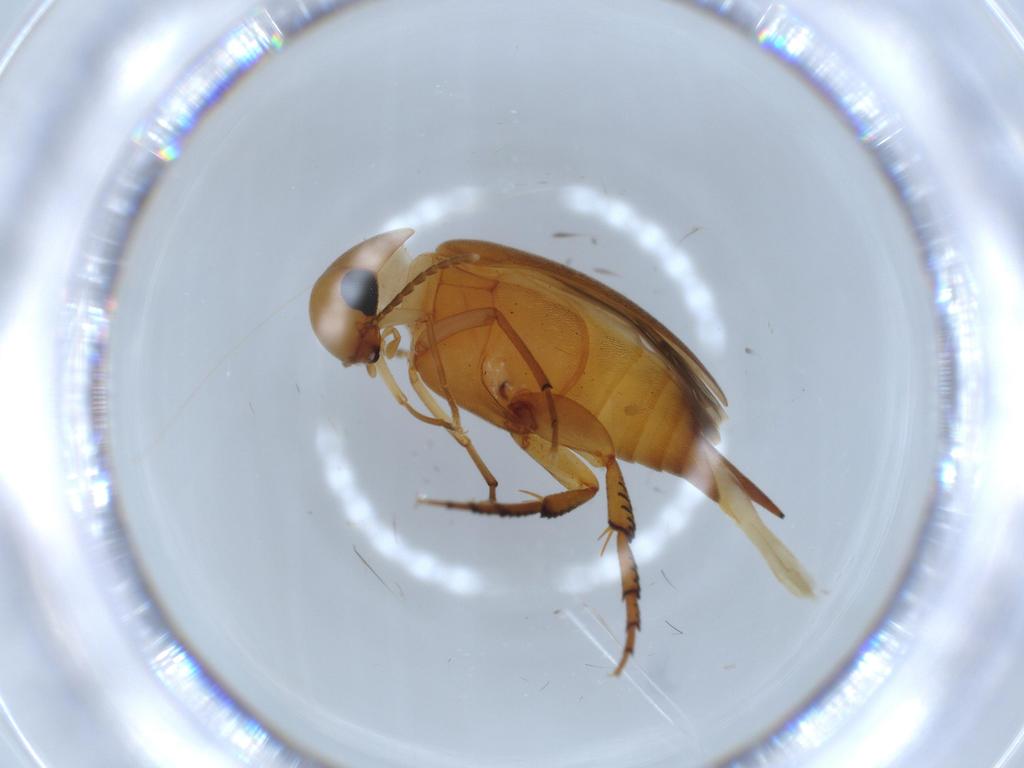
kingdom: Animalia
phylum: Arthropoda
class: Insecta
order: Coleoptera
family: Mordellidae
